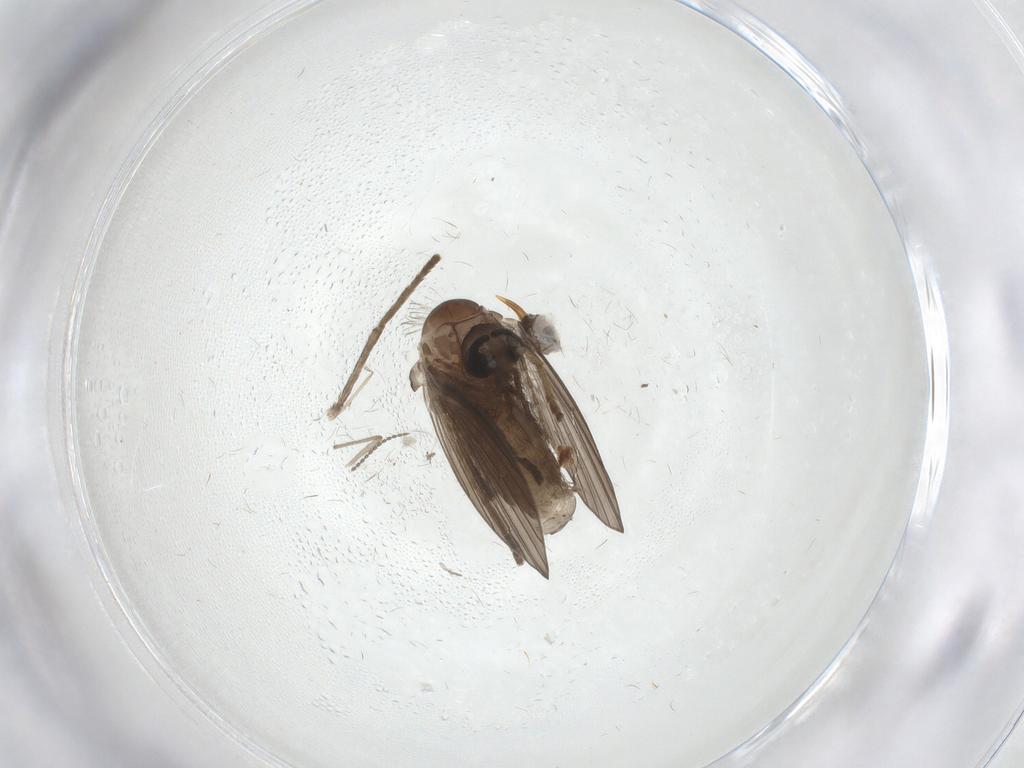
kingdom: Animalia
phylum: Arthropoda
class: Insecta
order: Diptera
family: Psychodidae
